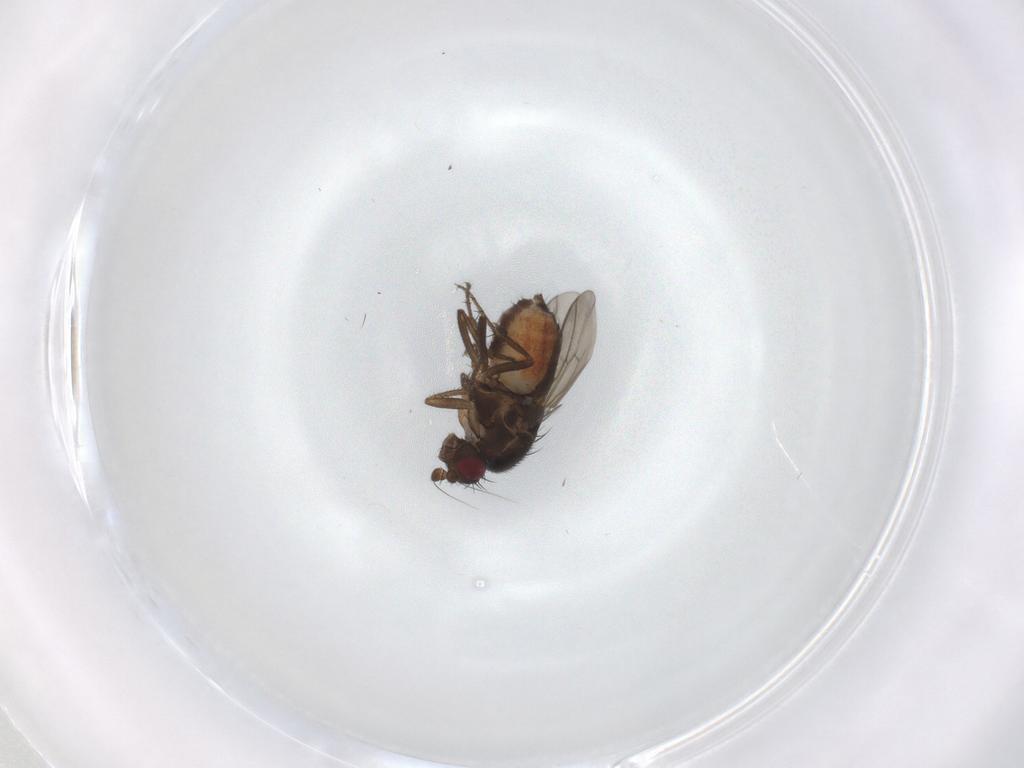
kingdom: Animalia
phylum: Arthropoda
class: Insecta
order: Diptera
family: Sphaeroceridae
